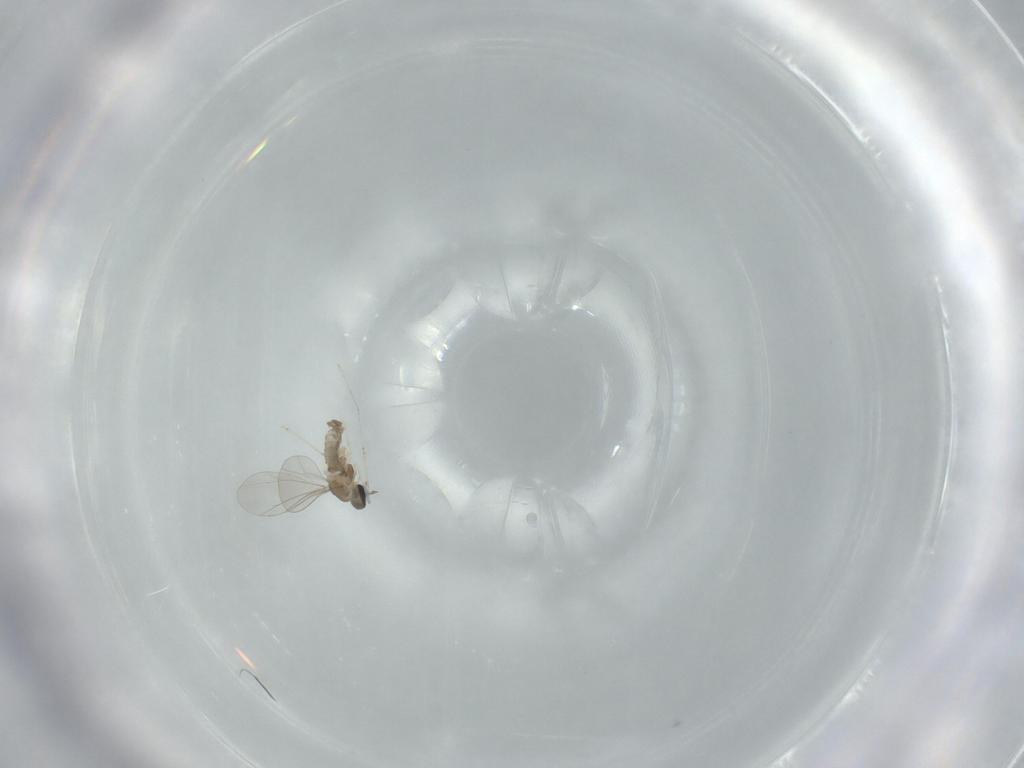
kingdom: Animalia
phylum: Arthropoda
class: Insecta
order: Diptera
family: Cecidomyiidae
